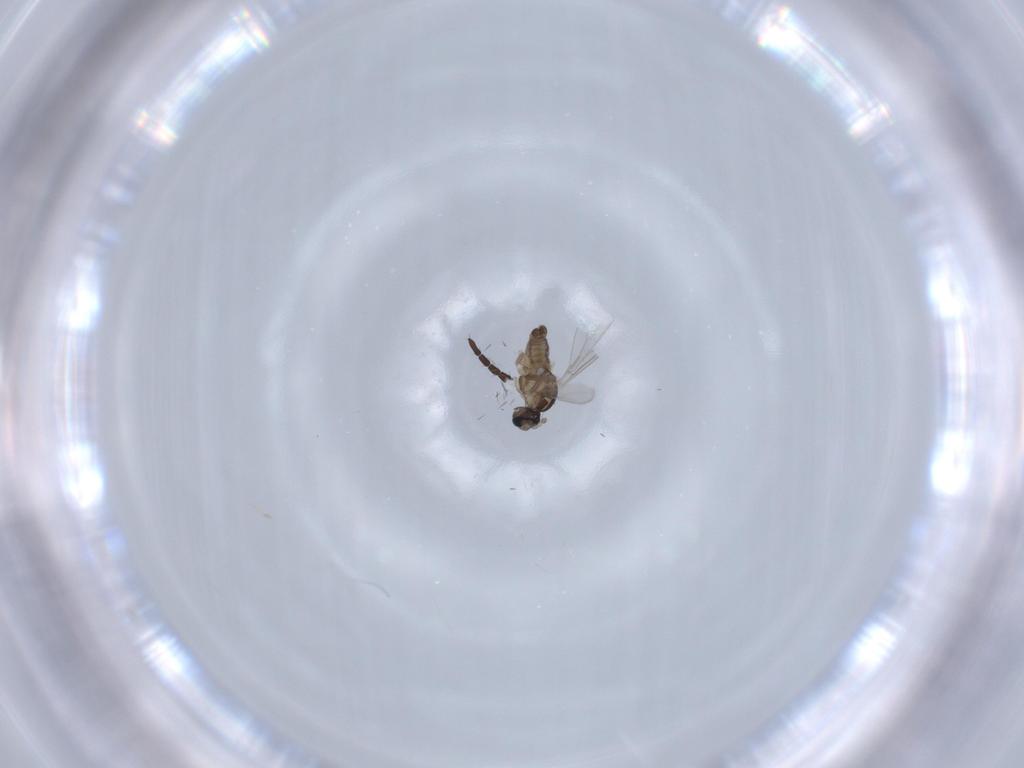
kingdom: Animalia
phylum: Arthropoda
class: Insecta
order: Diptera
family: Cecidomyiidae
